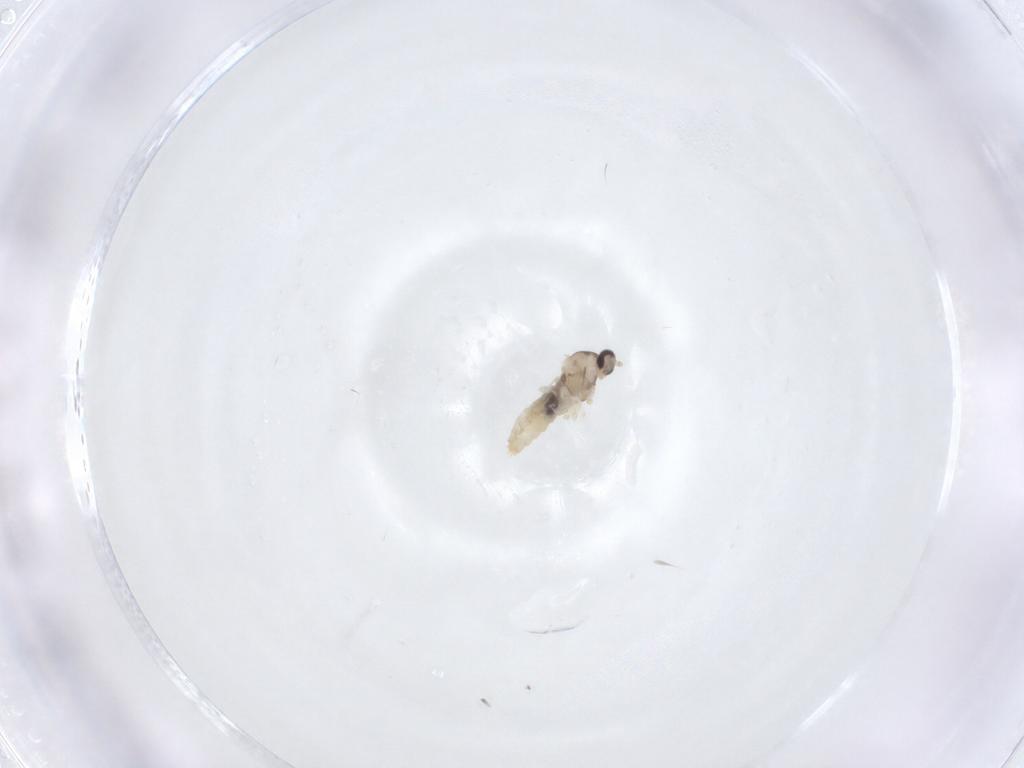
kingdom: Animalia
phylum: Arthropoda
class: Insecta
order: Diptera
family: Cecidomyiidae
